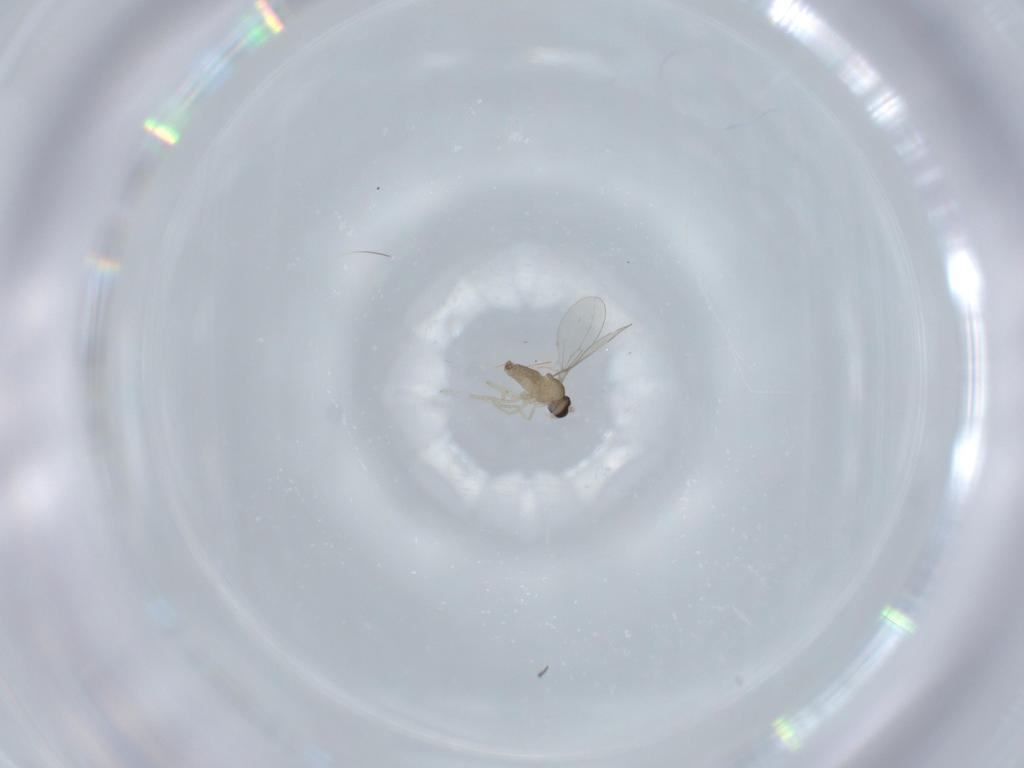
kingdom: Animalia
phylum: Arthropoda
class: Insecta
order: Diptera
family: Cecidomyiidae
